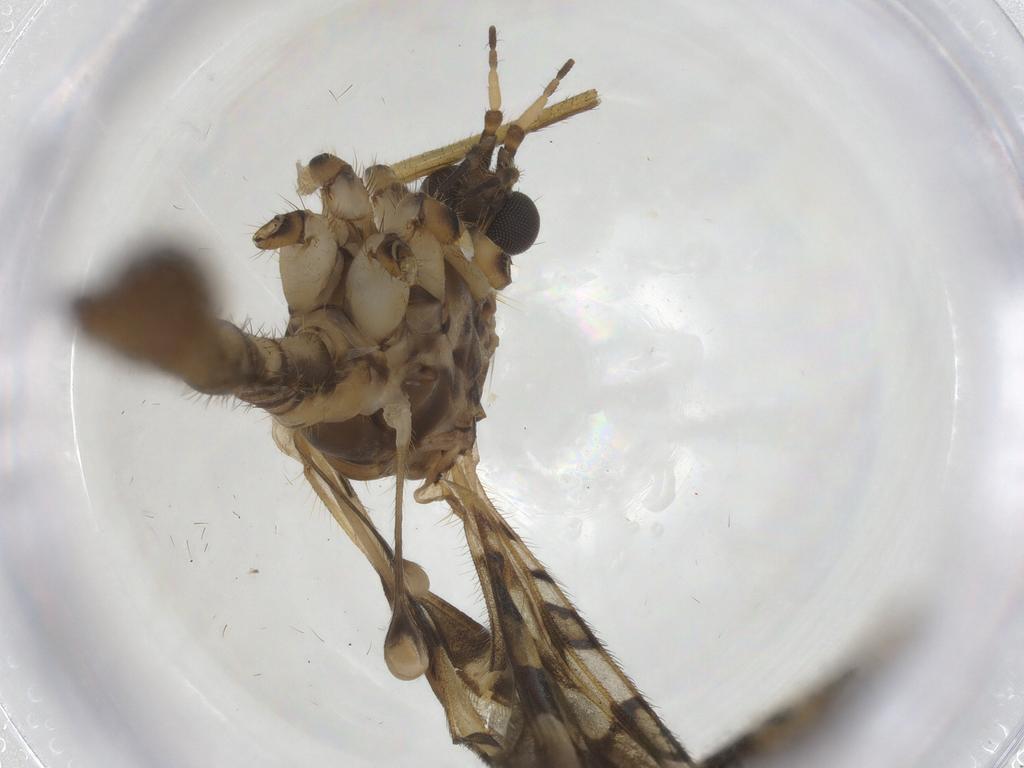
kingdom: Animalia
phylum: Arthropoda
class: Insecta
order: Diptera
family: Limoniidae
